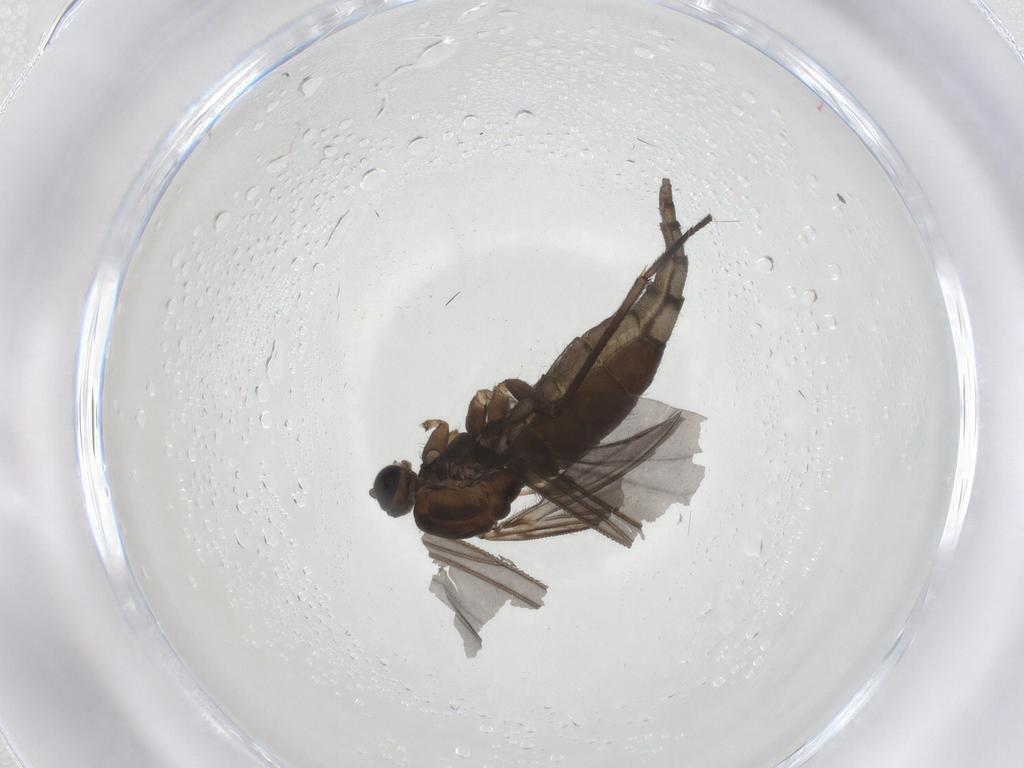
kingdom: Animalia
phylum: Arthropoda
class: Insecta
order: Diptera
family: Sciaridae
